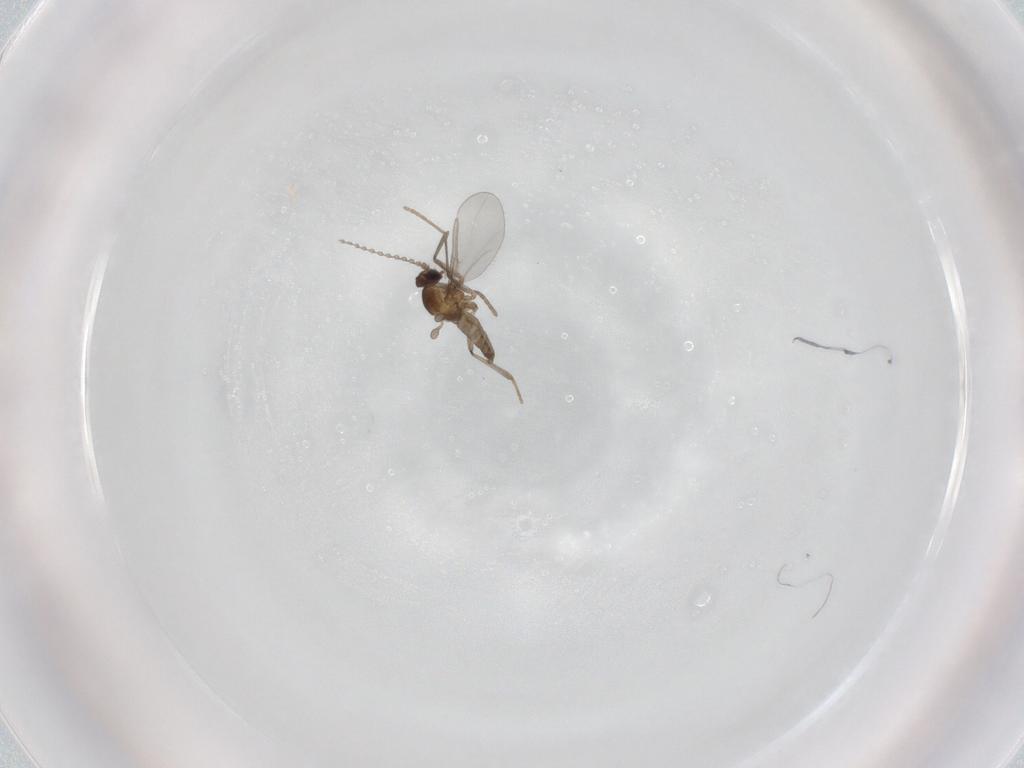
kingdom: Animalia
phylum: Arthropoda
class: Insecta
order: Diptera
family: Cecidomyiidae
